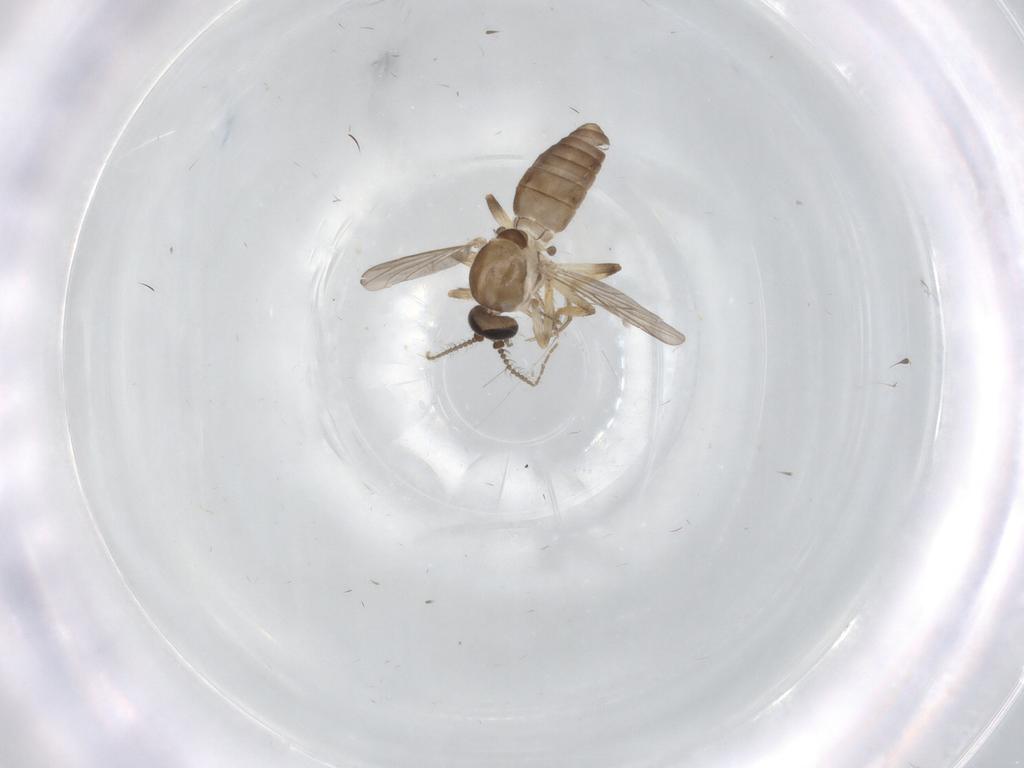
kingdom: Animalia
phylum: Arthropoda
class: Insecta
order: Diptera
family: Ceratopogonidae
